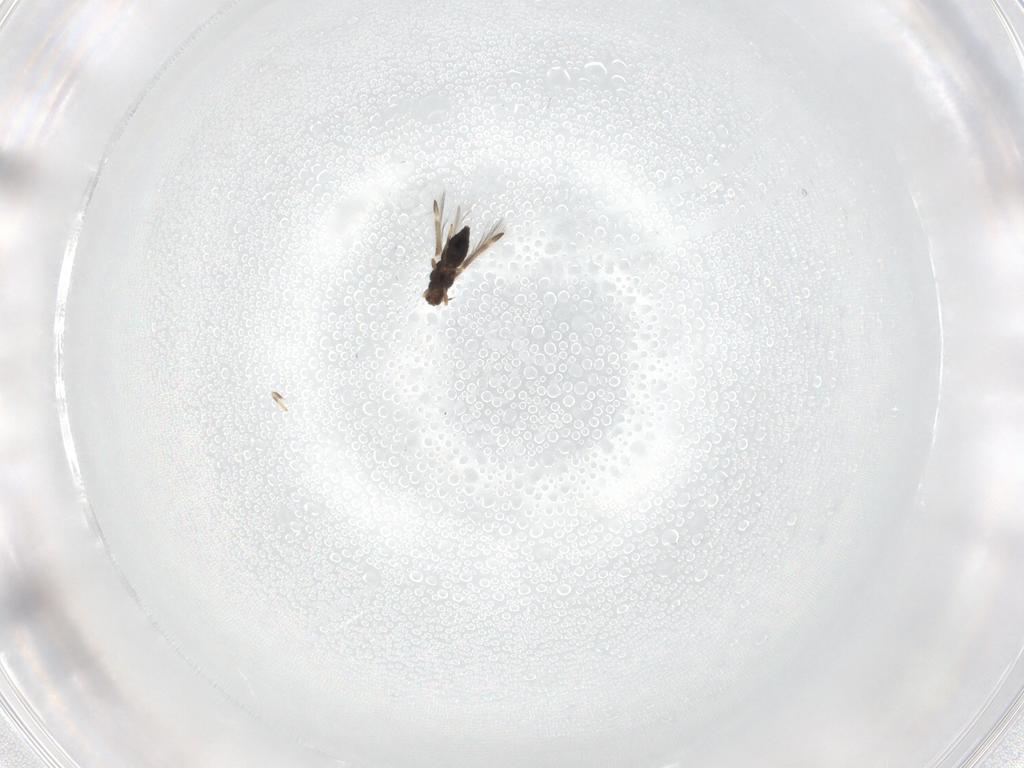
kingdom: Animalia
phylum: Arthropoda
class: Insecta
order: Thysanoptera
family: Thripidae
